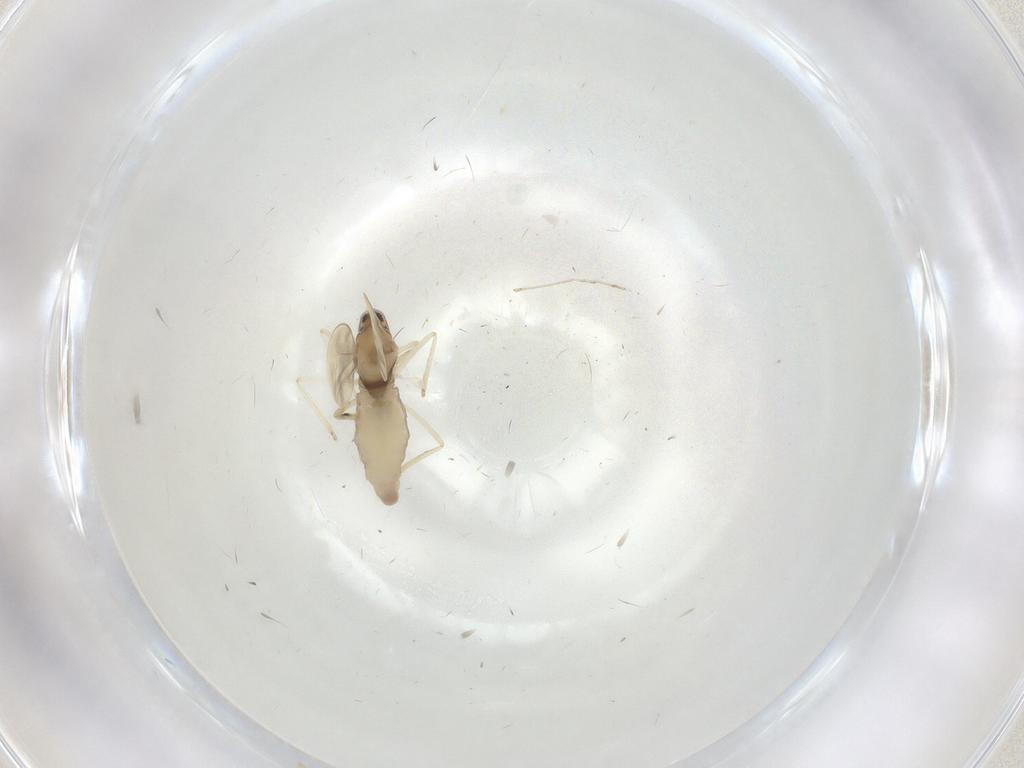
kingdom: Animalia
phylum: Arthropoda
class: Insecta
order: Diptera
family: Cecidomyiidae
